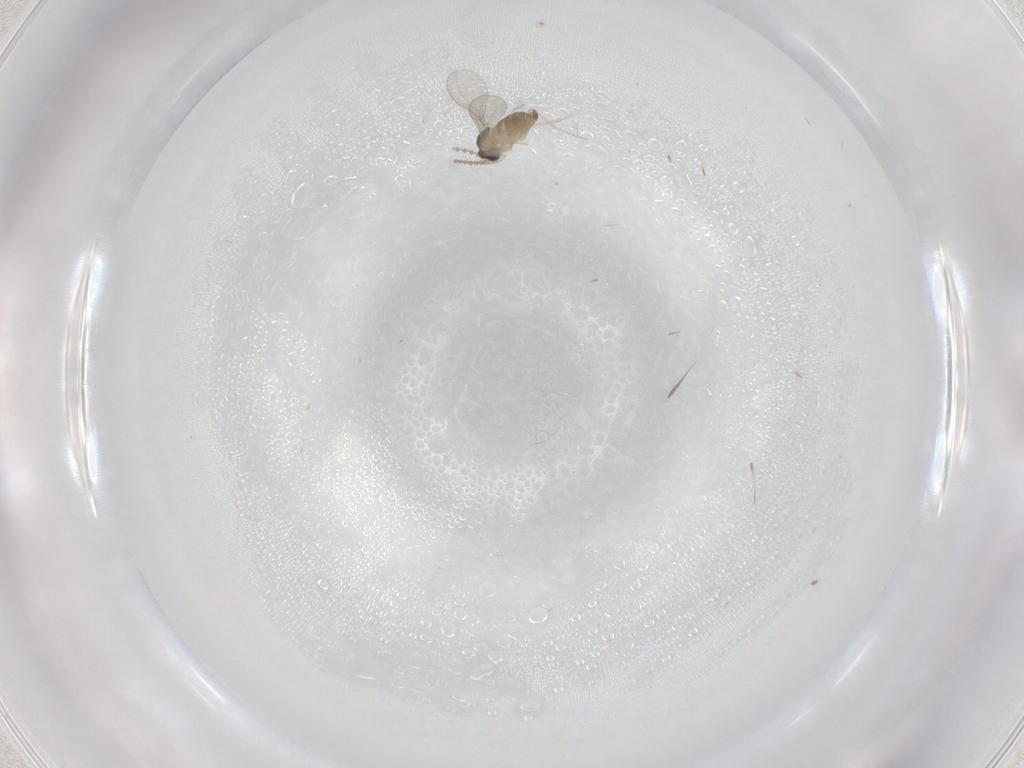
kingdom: Animalia
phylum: Arthropoda
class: Insecta
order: Diptera
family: Cecidomyiidae
